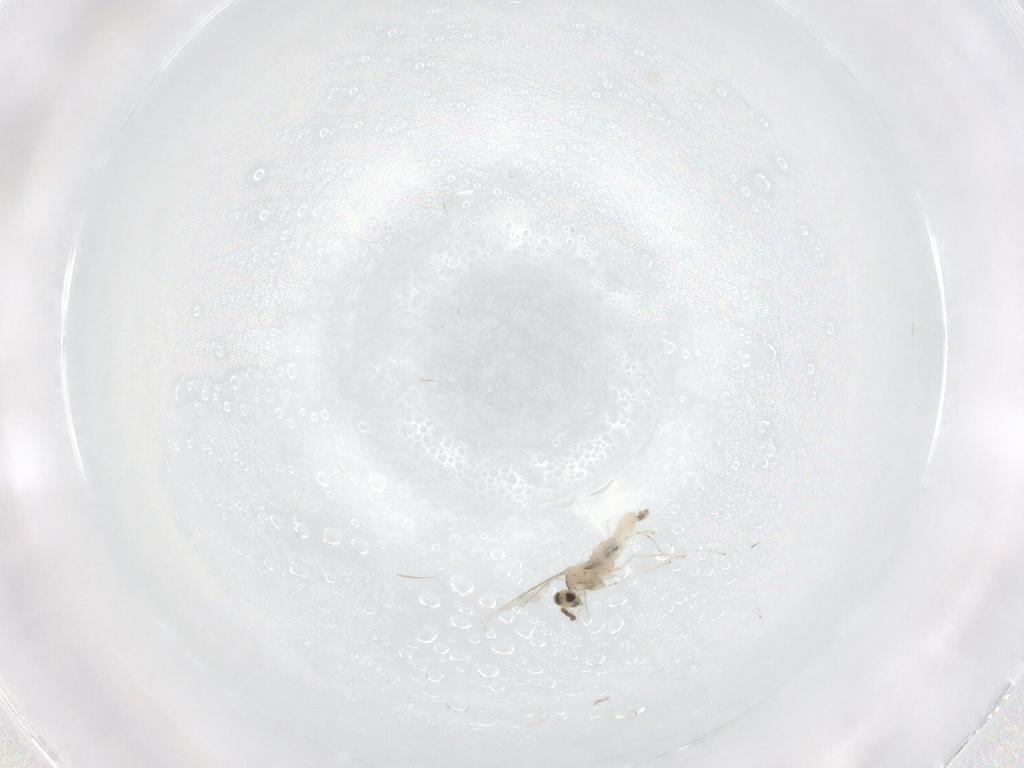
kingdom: Animalia
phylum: Arthropoda
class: Insecta
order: Diptera
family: Cecidomyiidae
